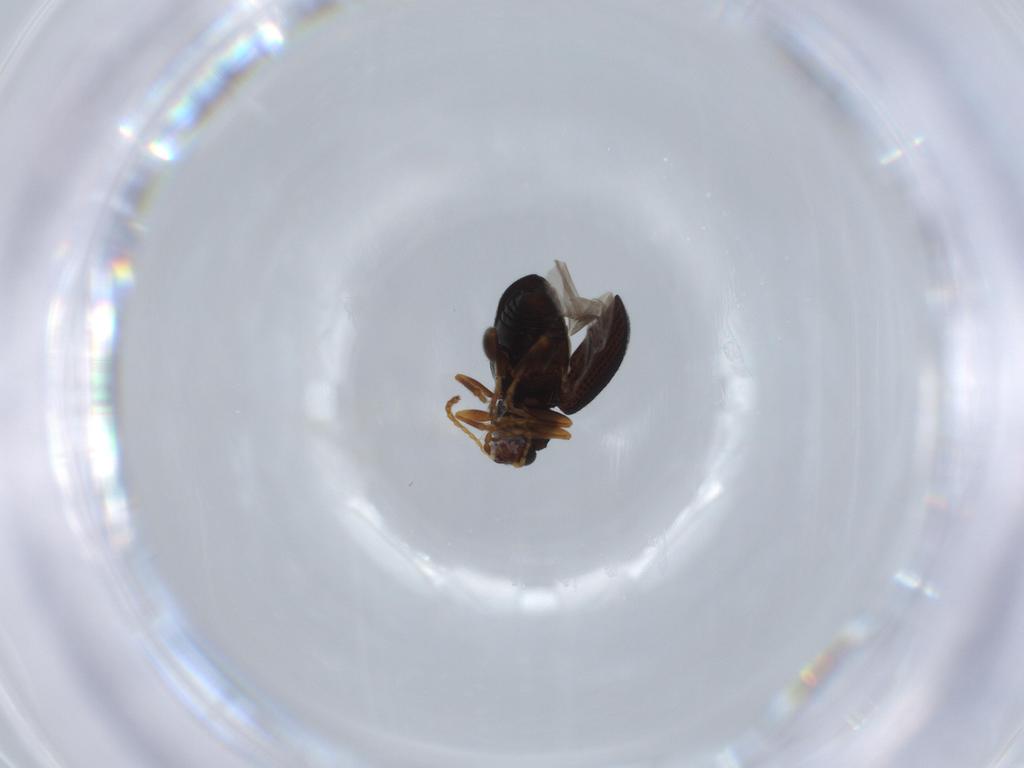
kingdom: Animalia
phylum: Arthropoda
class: Insecta
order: Coleoptera
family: Chrysomelidae
